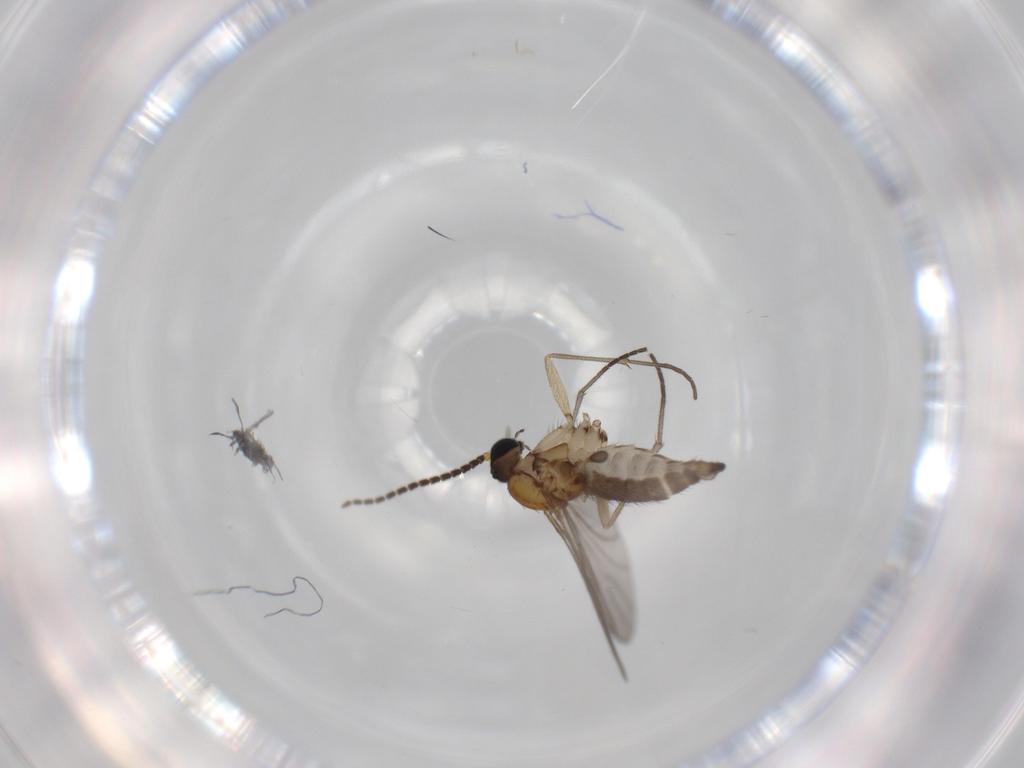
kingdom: Animalia
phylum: Arthropoda
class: Insecta
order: Diptera
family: Sciaridae
